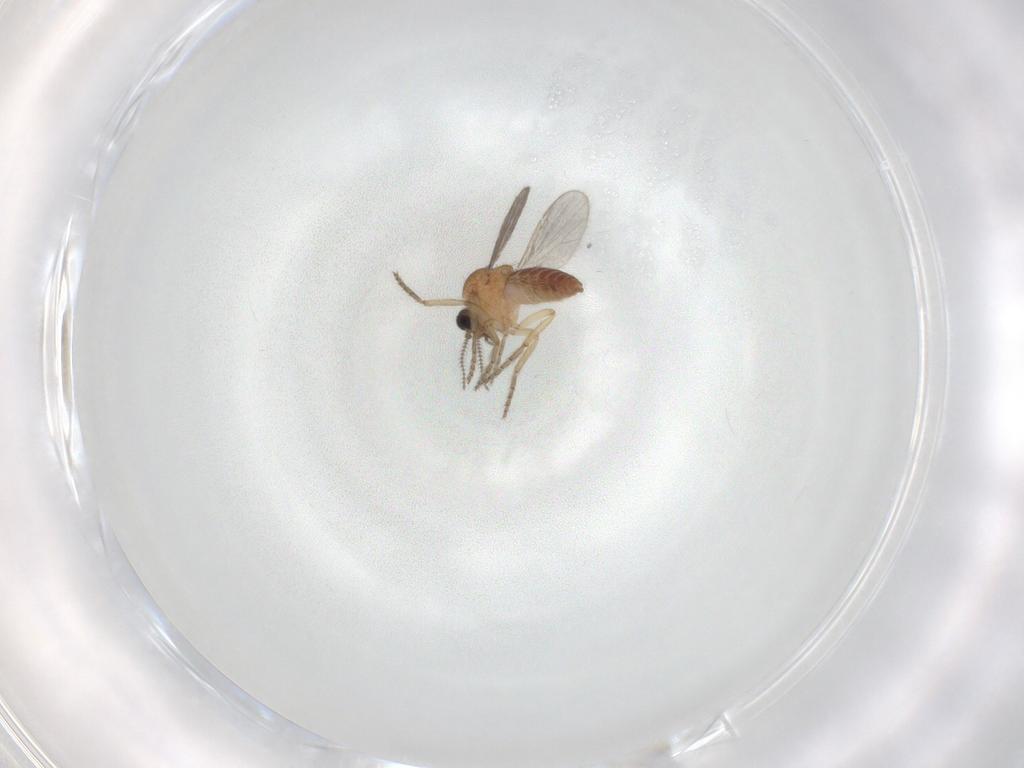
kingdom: Animalia
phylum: Arthropoda
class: Insecta
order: Diptera
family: Ceratopogonidae
